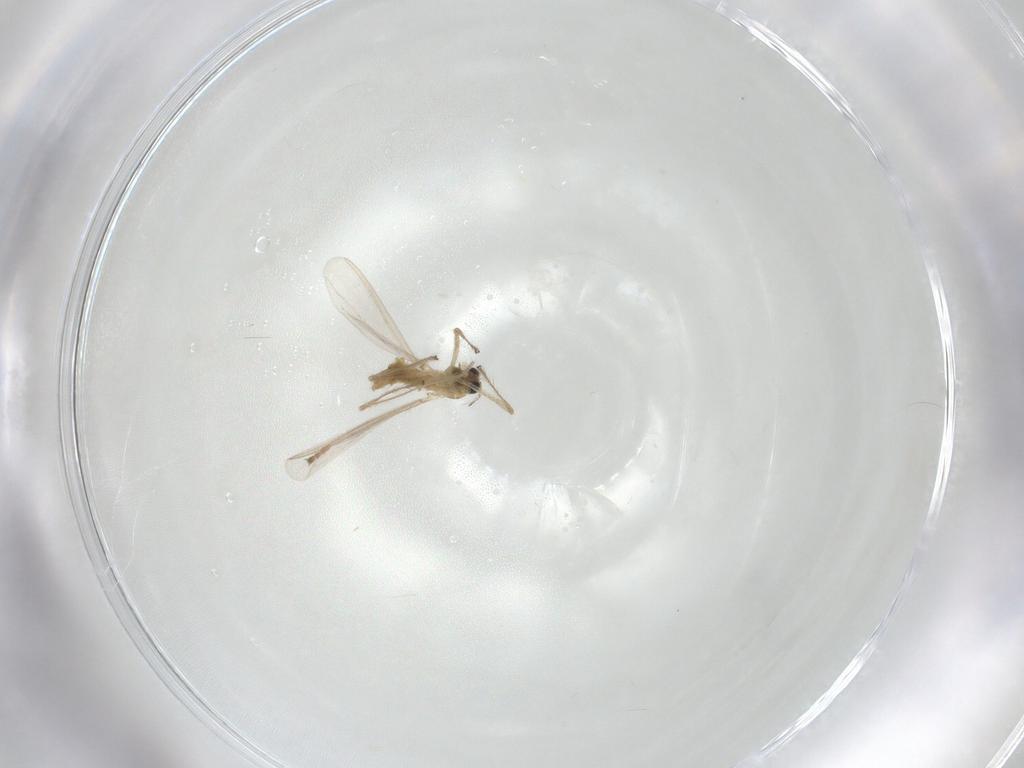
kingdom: Animalia
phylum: Arthropoda
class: Insecta
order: Diptera
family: Chironomidae
